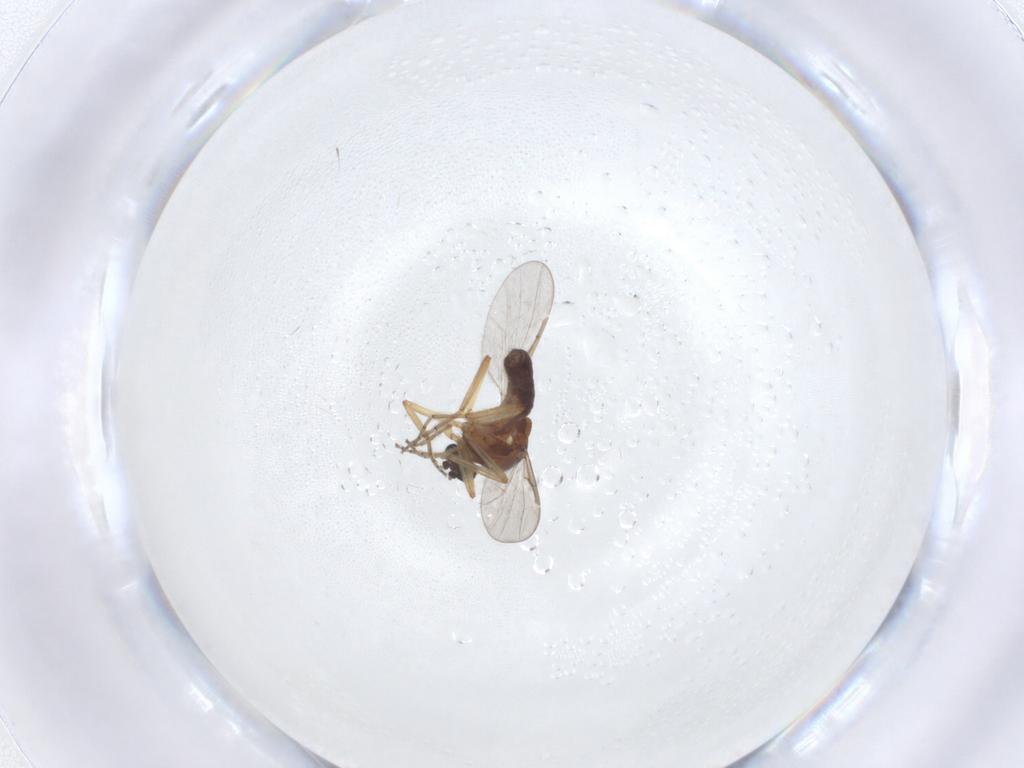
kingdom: Animalia
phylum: Arthropoda
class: Insecta
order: Diptera
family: Ceratopogonidae
